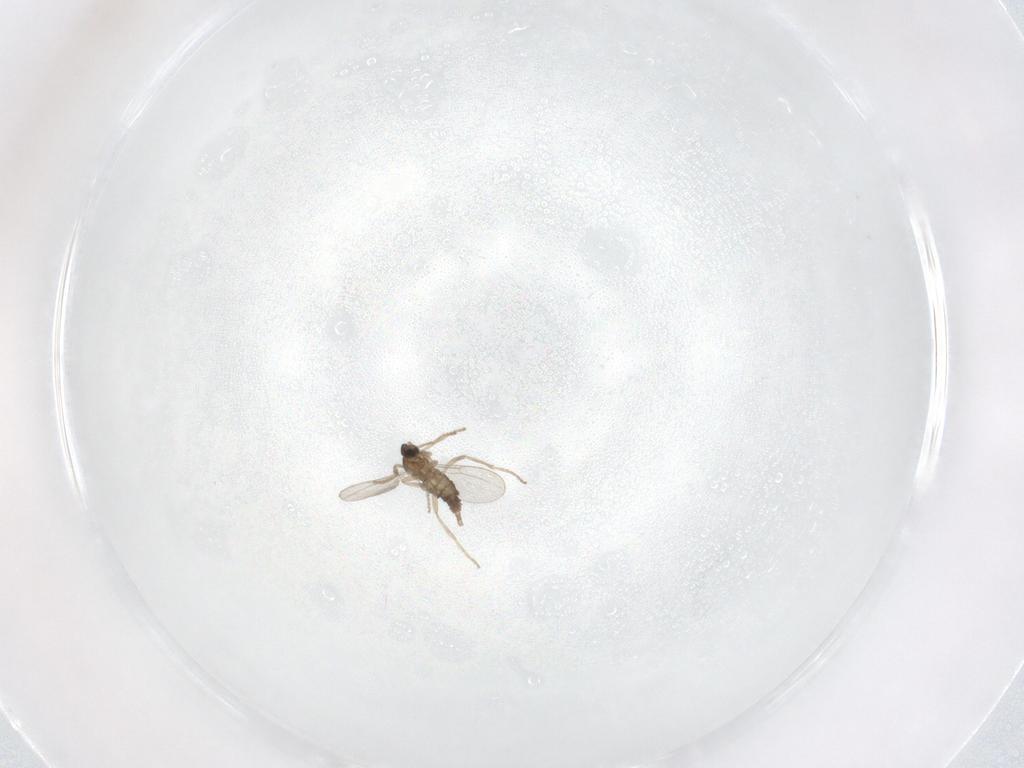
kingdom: Animalia
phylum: Arthropoda
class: Insecta
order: Diptera
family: Cecidomyiidae
